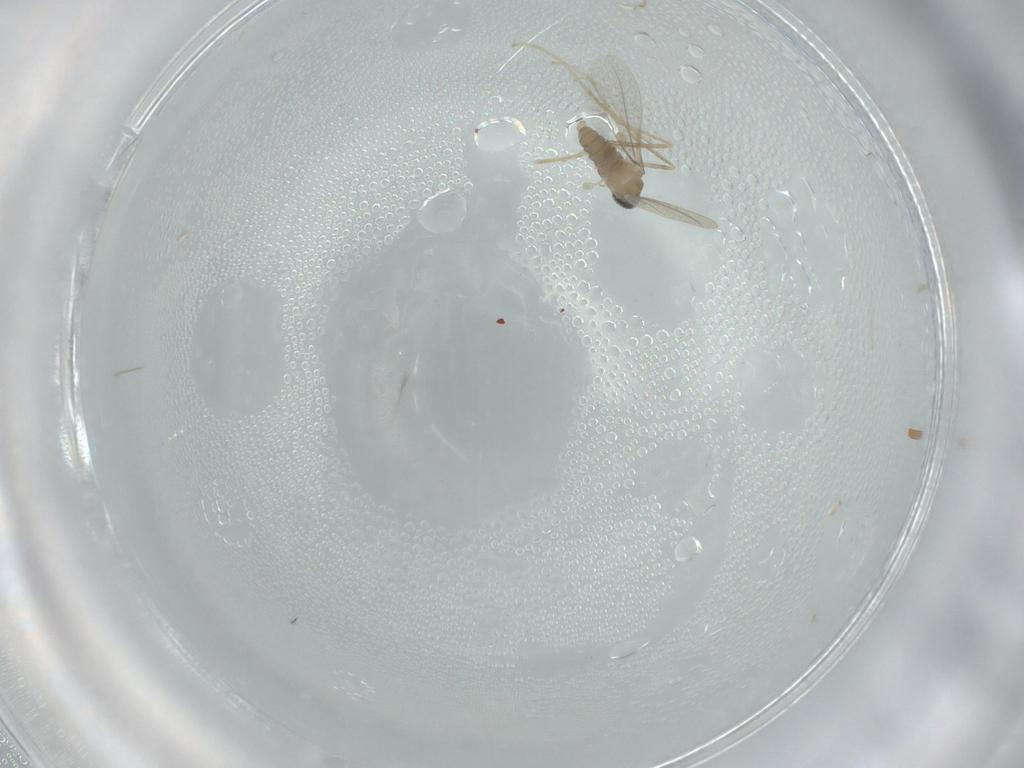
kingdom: Animalia
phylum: Arthropoda
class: Insecta
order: Diptera
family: Cecidomyiidae
